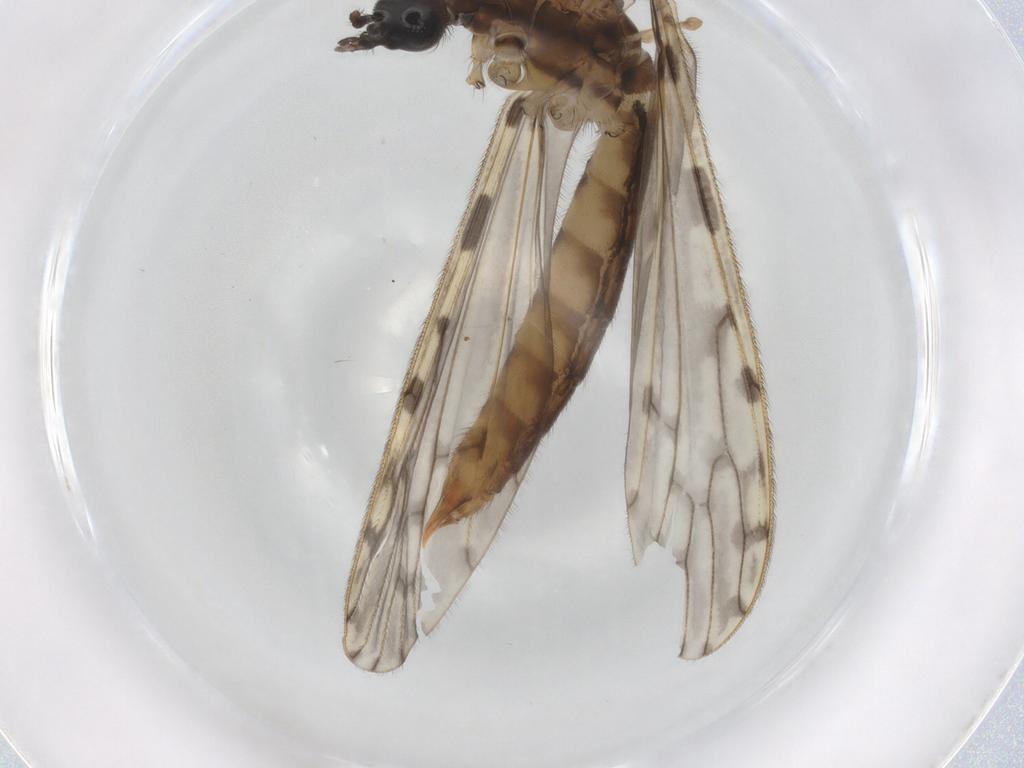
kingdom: Animalia
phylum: Arthropoda
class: Insecta
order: Diptera
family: Limoniidae
